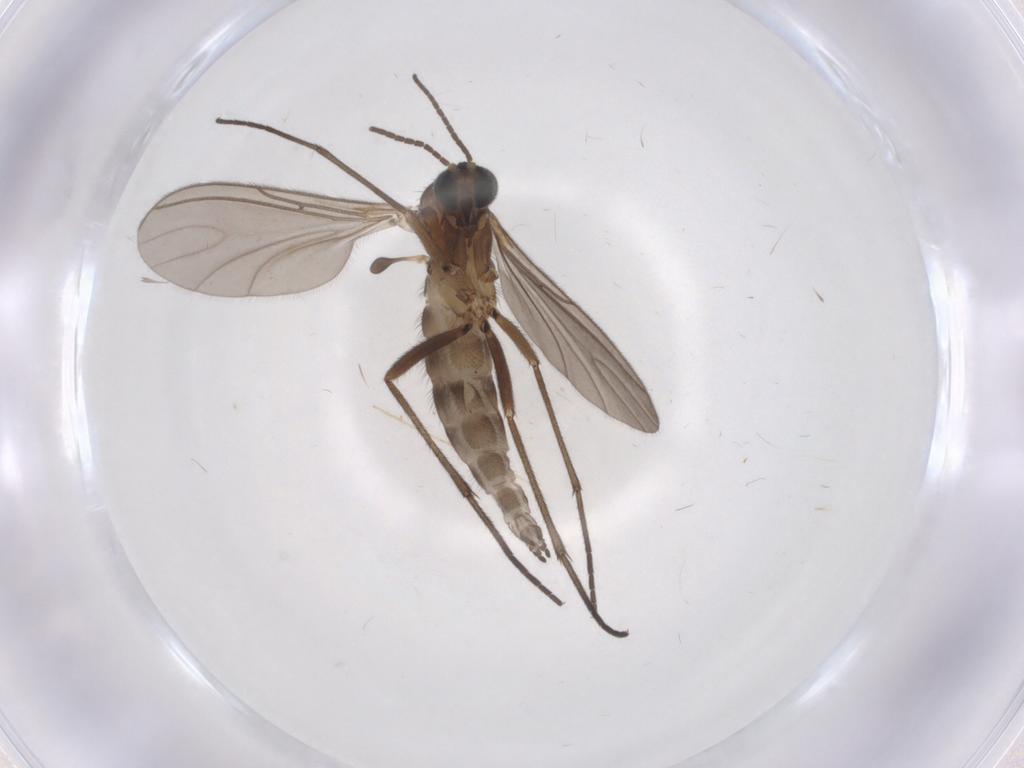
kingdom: Animalia
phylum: Arthropoda
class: Insecta
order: Diptera
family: Sciaridae
